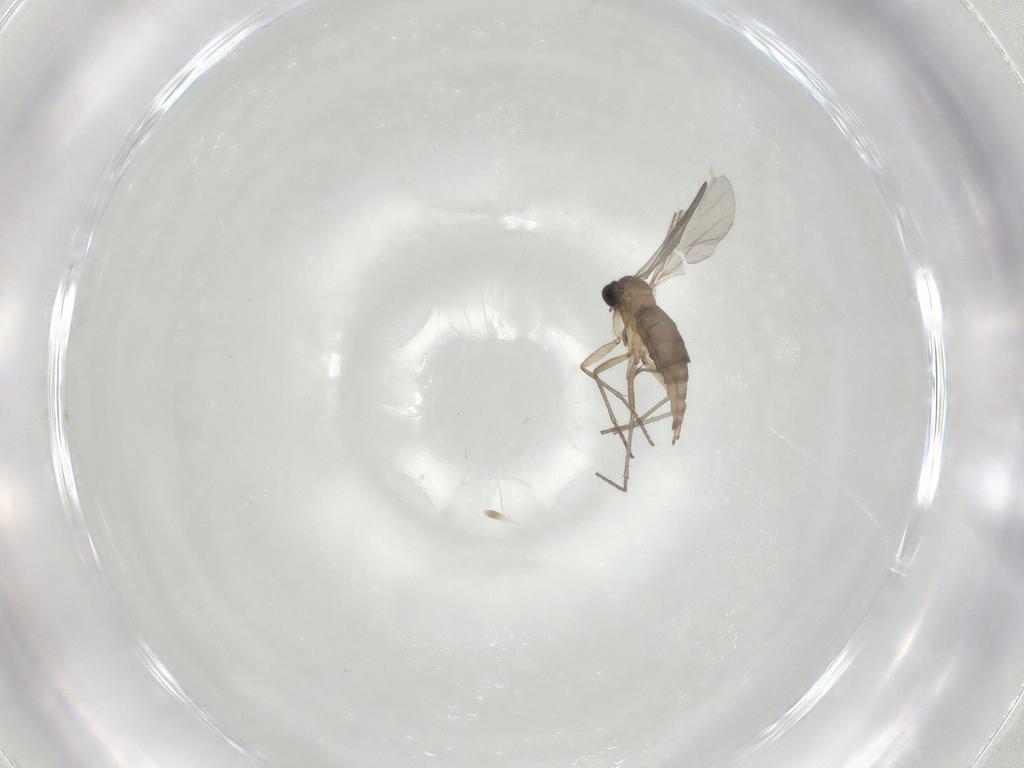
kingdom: Animalia
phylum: Arthropoda
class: Insecta
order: Diptera
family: Sciaridae
